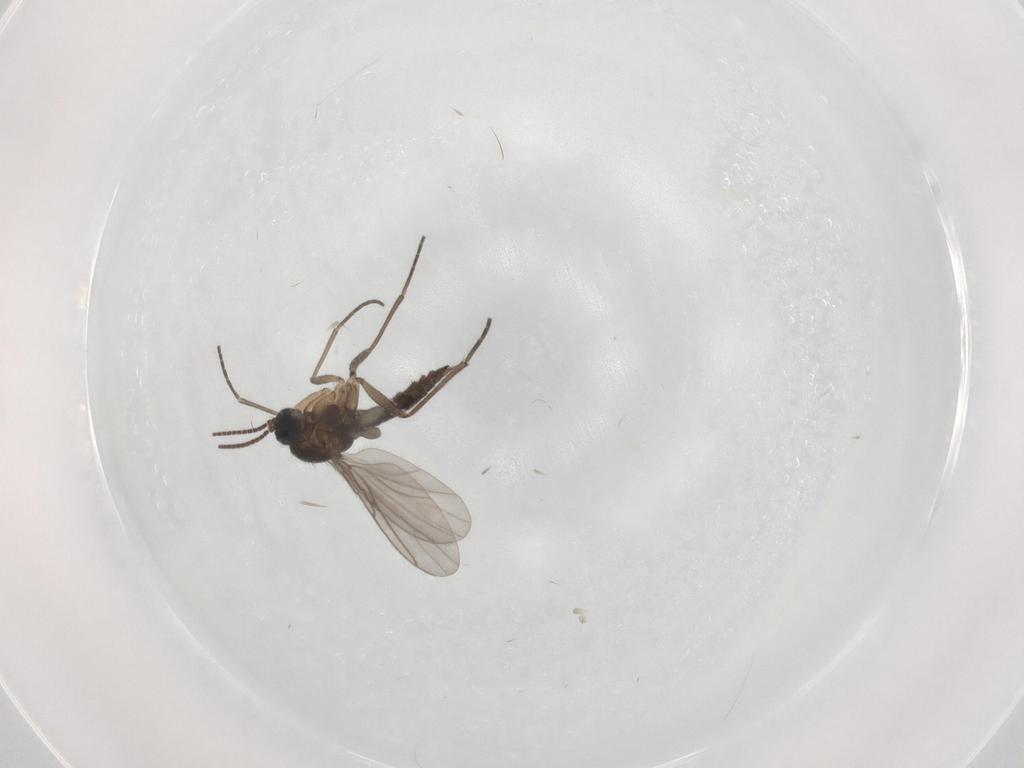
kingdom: Animalia
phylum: Arthropoda
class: Insecta
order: Diptera
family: Sciaridae
